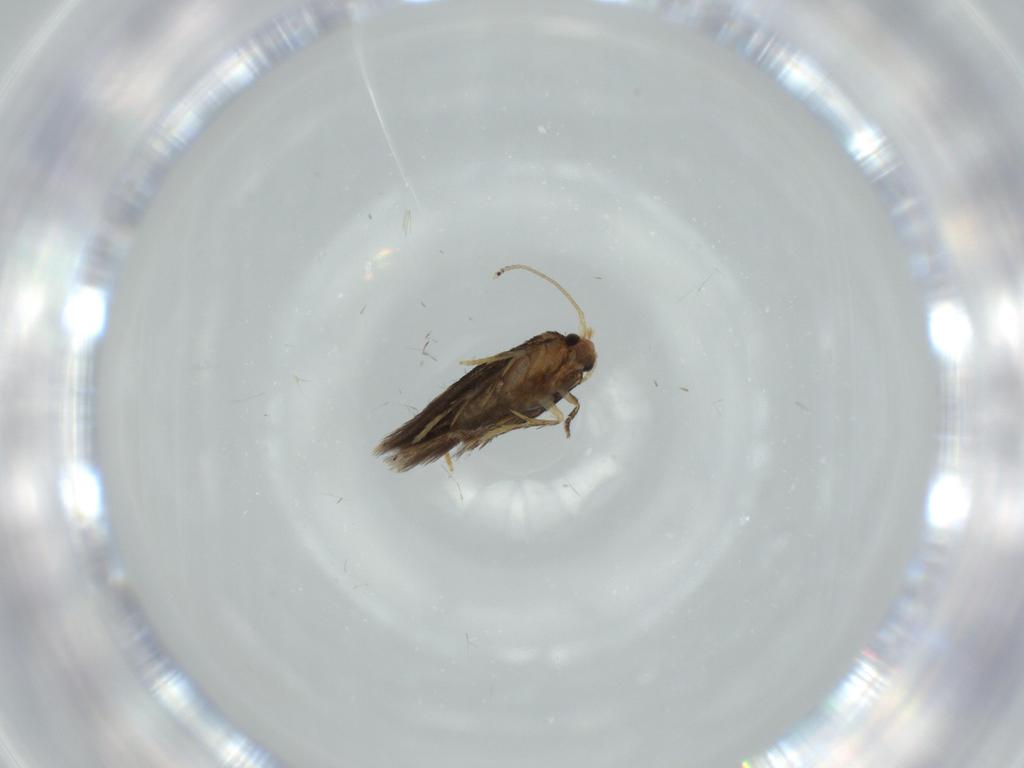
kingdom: Animalia
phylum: Arthropoda
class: Insecta
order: Lepidoptera
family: Nepticulidae
